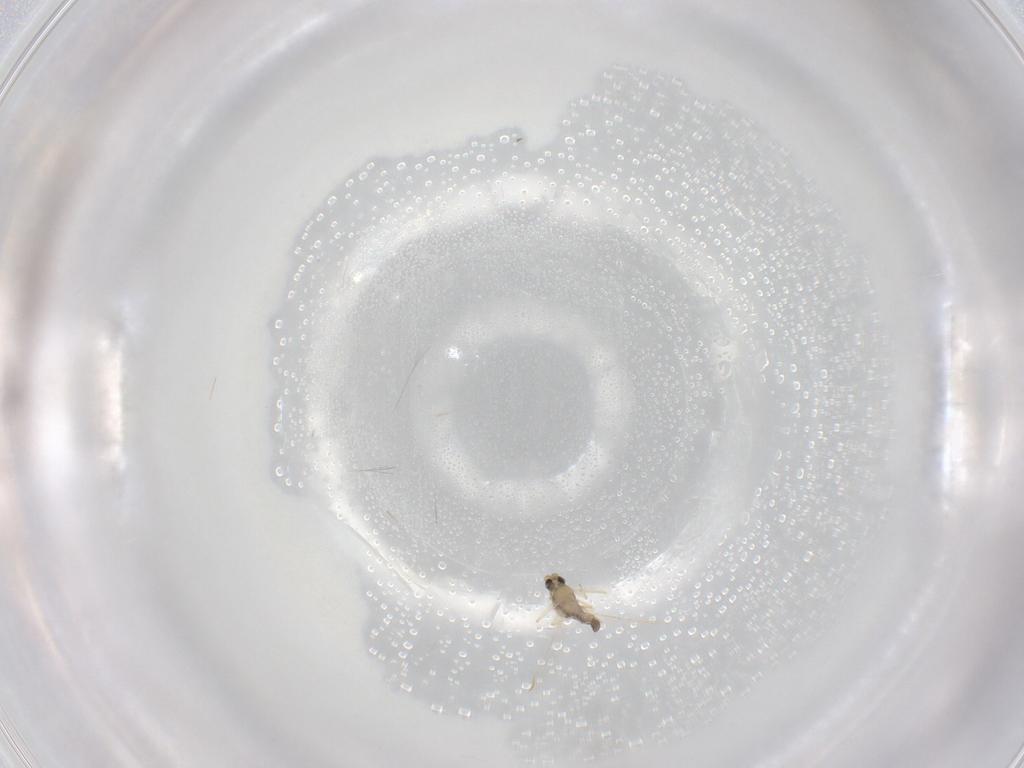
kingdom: Animalia
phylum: Arthropoda
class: Insecta
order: Diptera
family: Chironomidae
